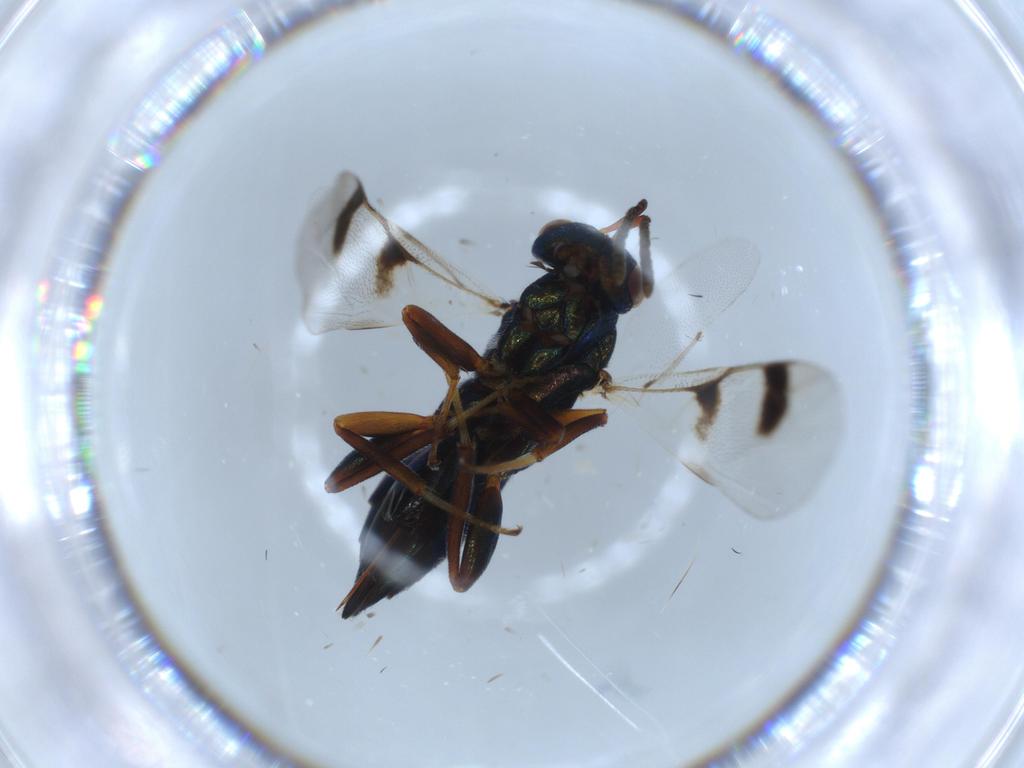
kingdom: Animalia
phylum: Arthropoda
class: Insecta
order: Hymenoptera
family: Pteromalidae
